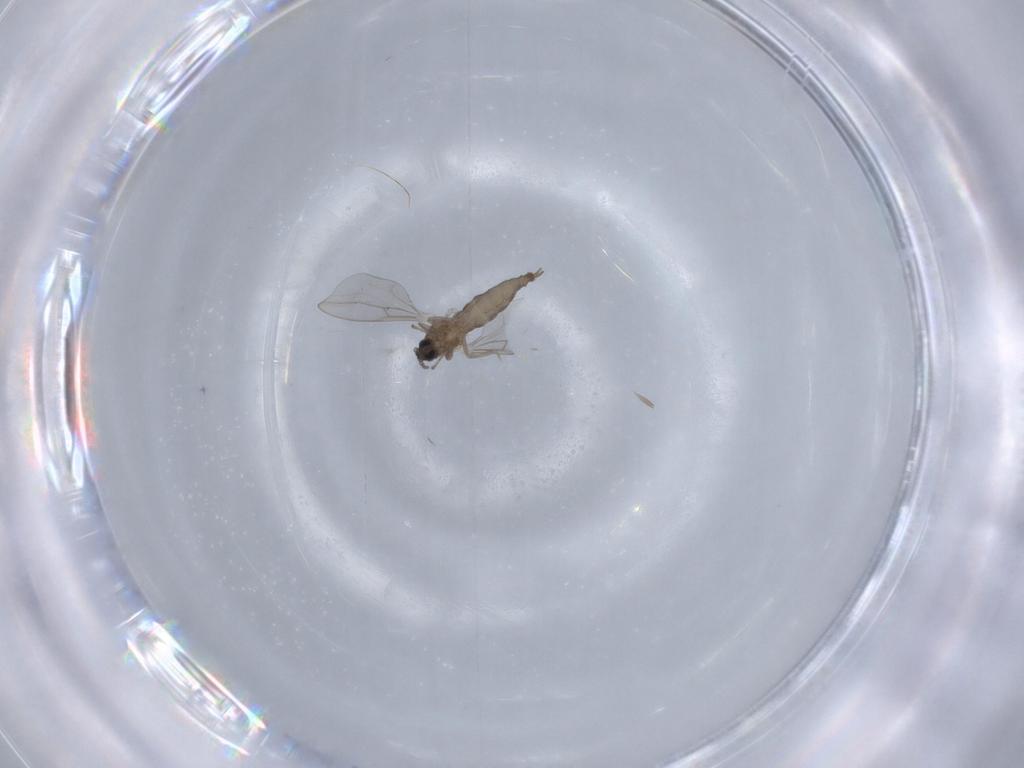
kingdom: Animalia
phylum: Arthropoda
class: Insecta
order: Diptera
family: Cecidomyiidae
